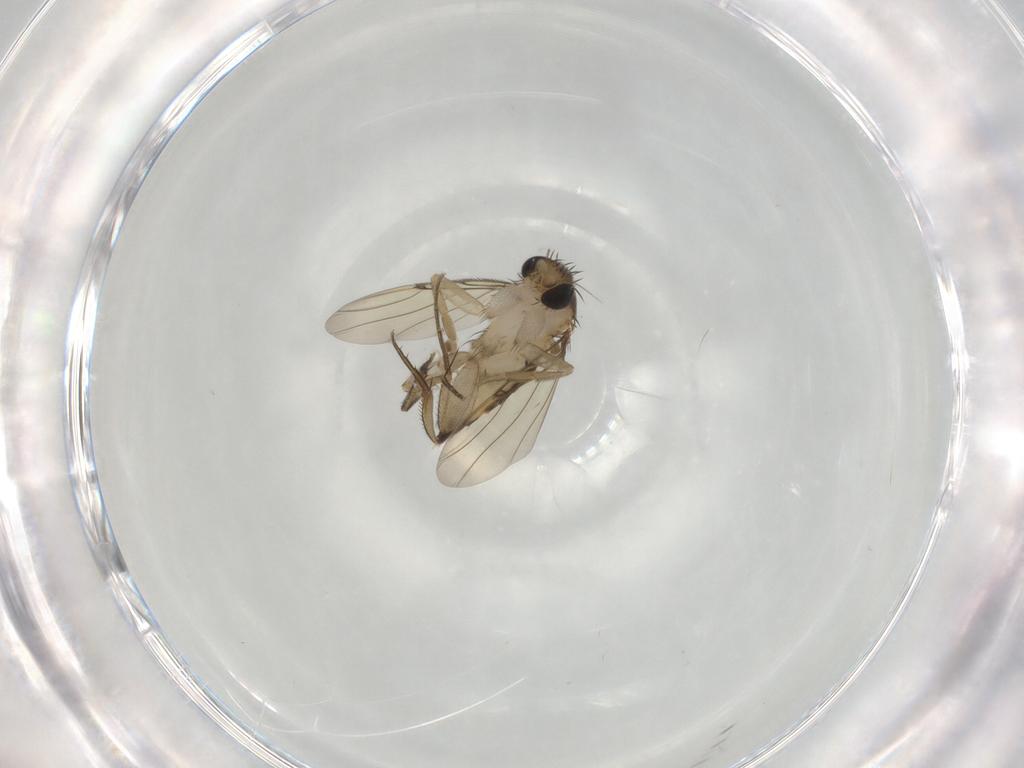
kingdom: Animalia
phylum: Arthropoda
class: Insecta
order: Diptera
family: Phoridae
